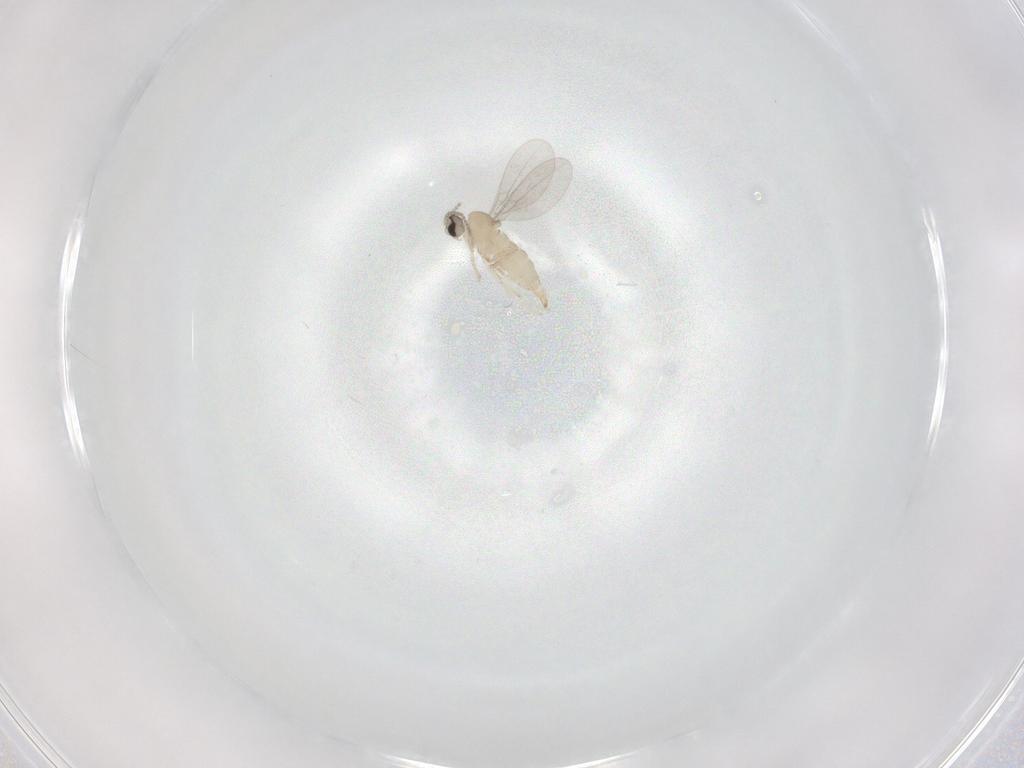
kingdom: Animalia
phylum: Arthropoda
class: Insecta
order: Diptera
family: Cecidomyiidae
